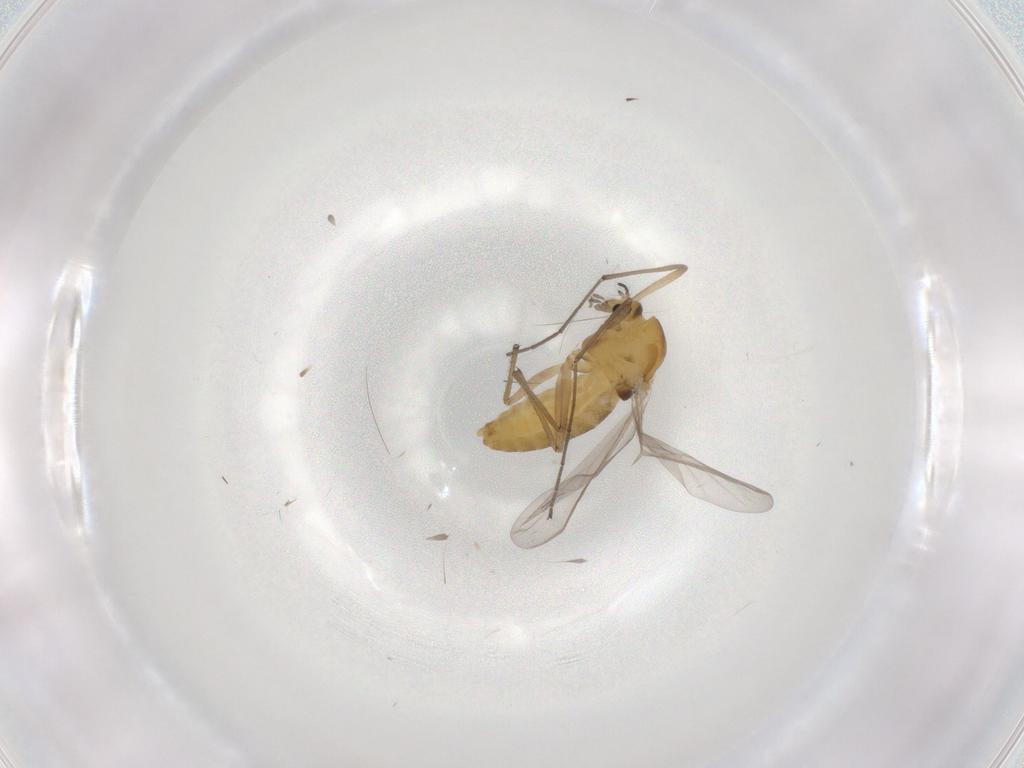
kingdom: Animalia
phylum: Arthropoda
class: Insecta
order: Diptera
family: Chironomidae
